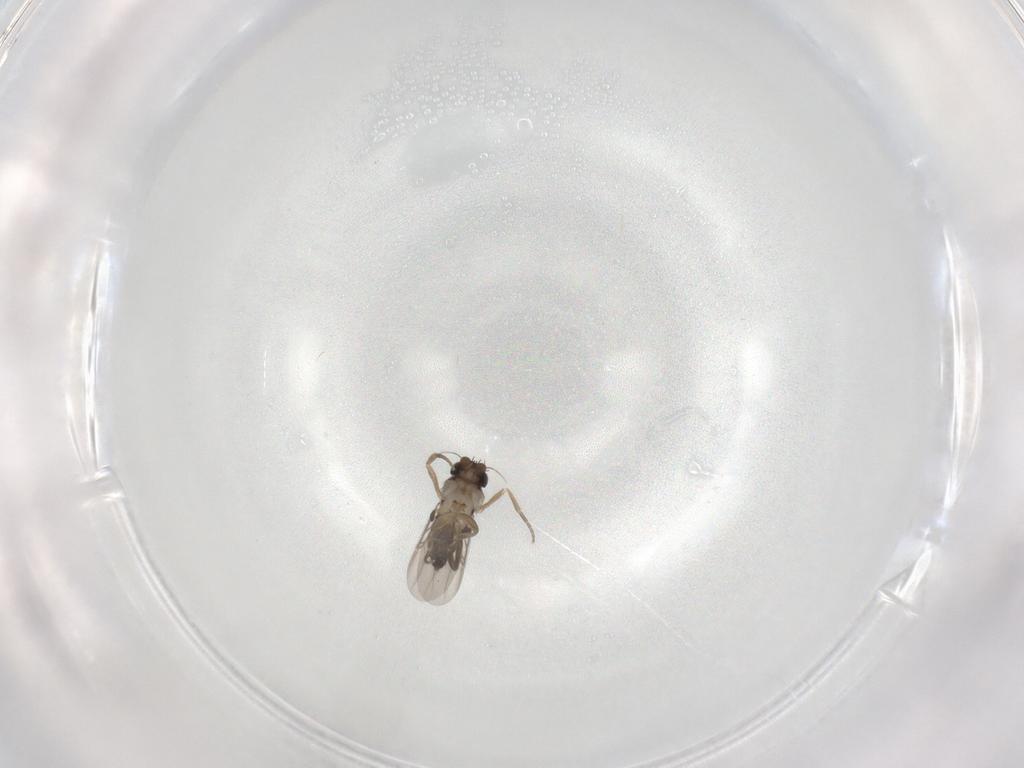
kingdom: Animalia
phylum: Arthropoda
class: Insecta
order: Diptera
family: Phoridae
